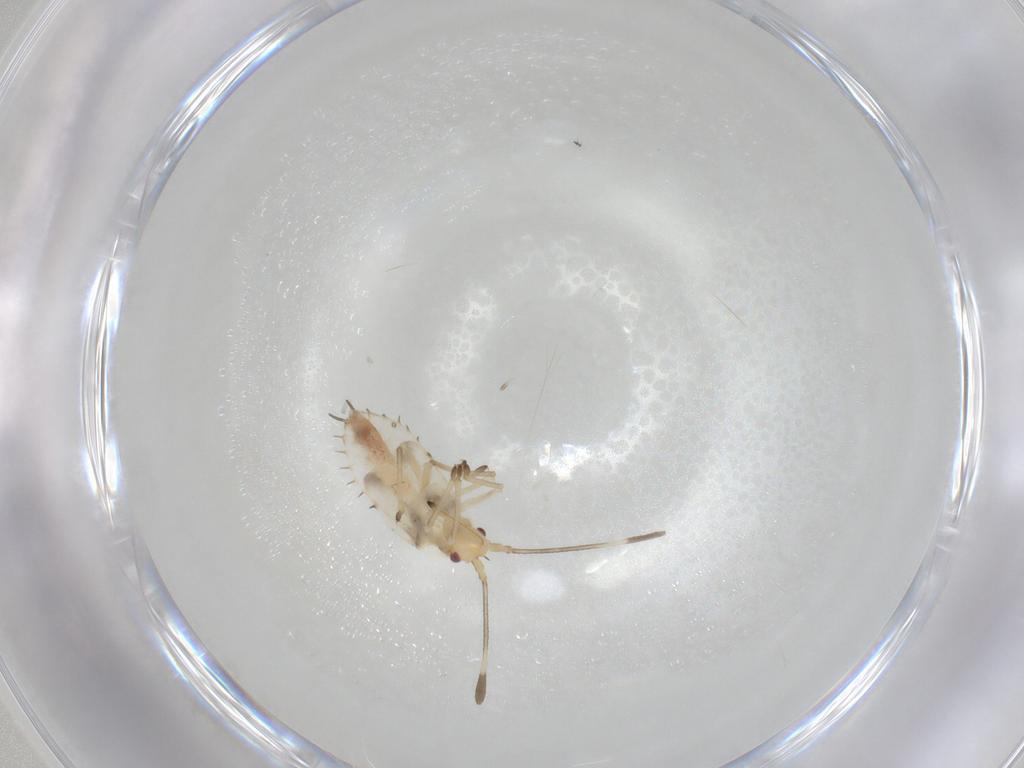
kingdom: Animalia
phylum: Arthropoda
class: Insecta
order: Hemiptera
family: Tingidae
